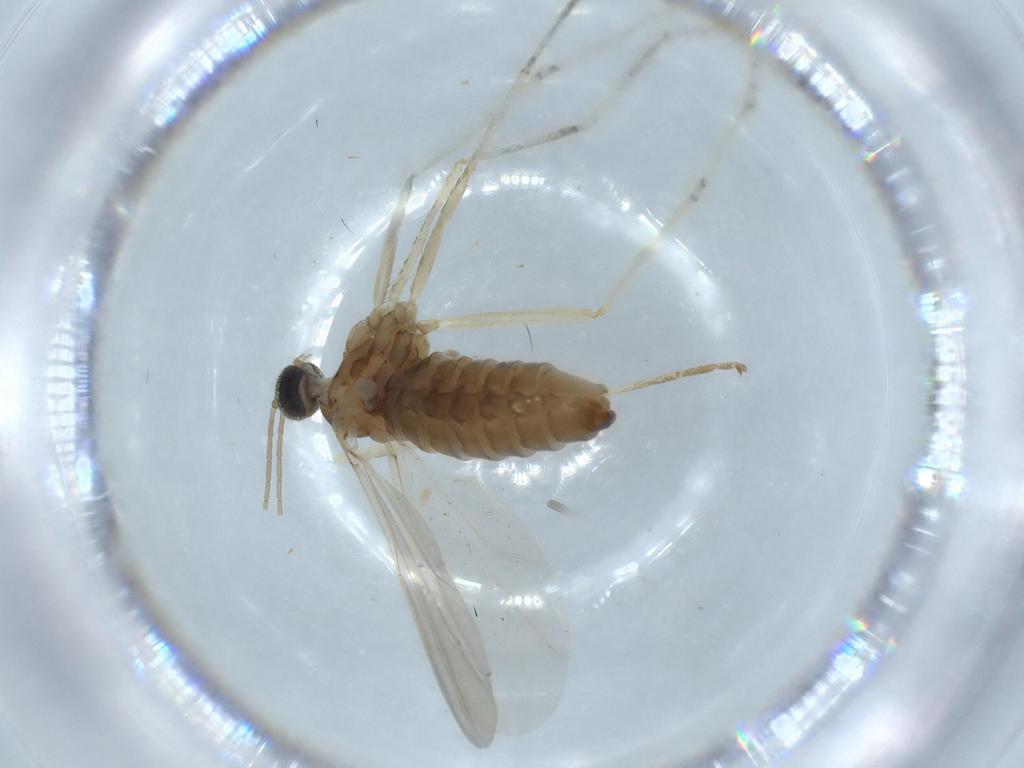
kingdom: Animalia
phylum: Arthropoda
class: Insecta
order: Diptera
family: Cecidomyiidae
